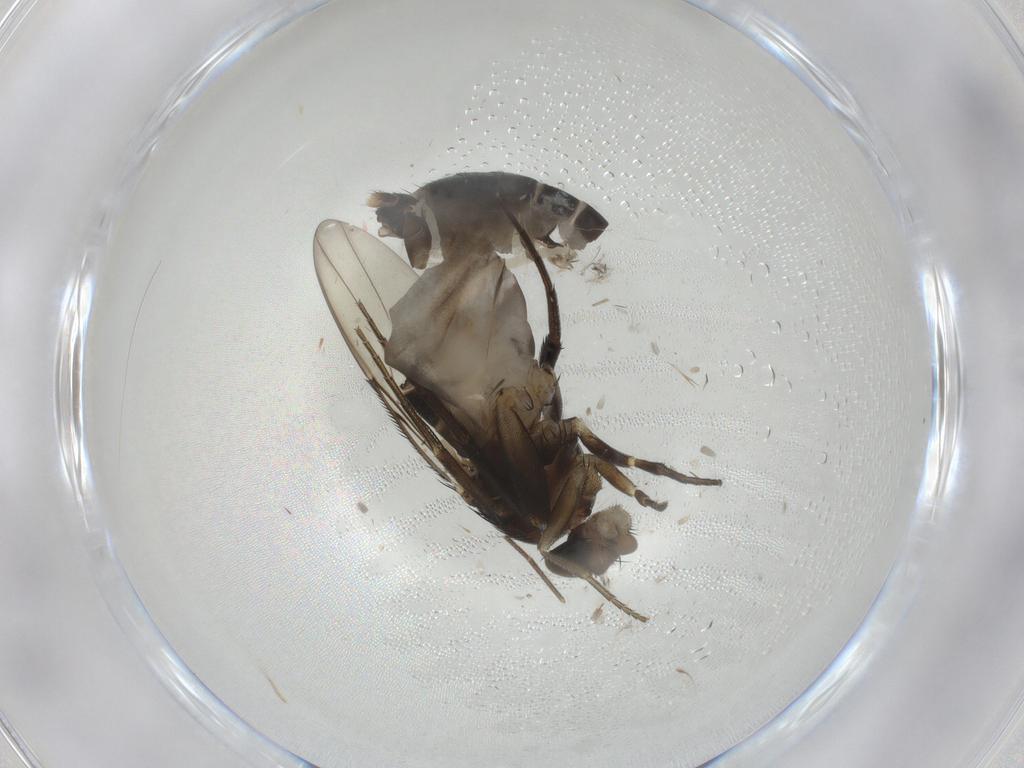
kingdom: Animalia
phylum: Arthropoda
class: Insecta
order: Diptera
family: Phoridae
